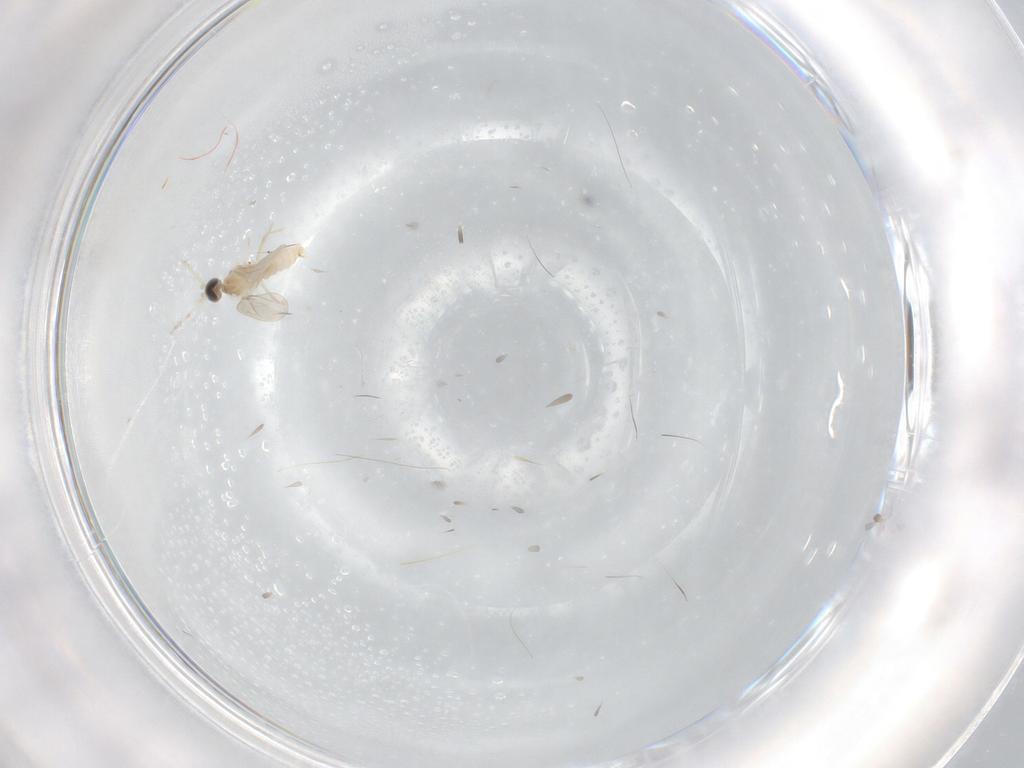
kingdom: Animalia
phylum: Arthropoda
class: Insecta
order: Diptera
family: Cecidomyiidae
